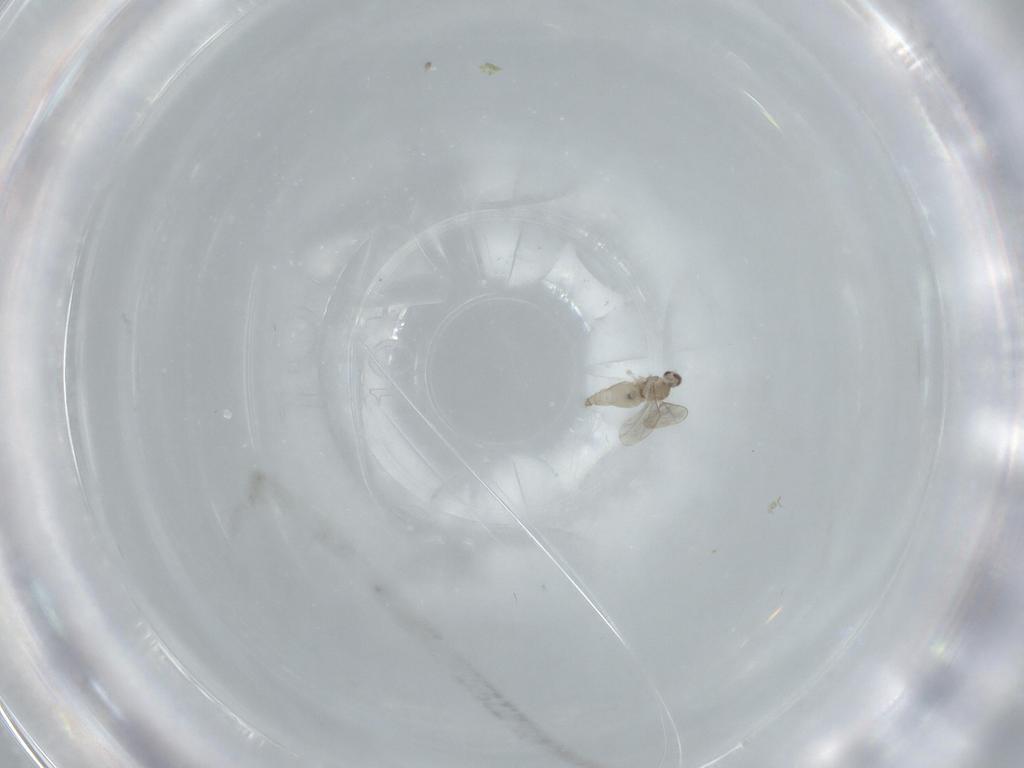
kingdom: Animalia
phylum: Arthropoda
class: Insecta
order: Diptera
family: Cecidomyiidae
